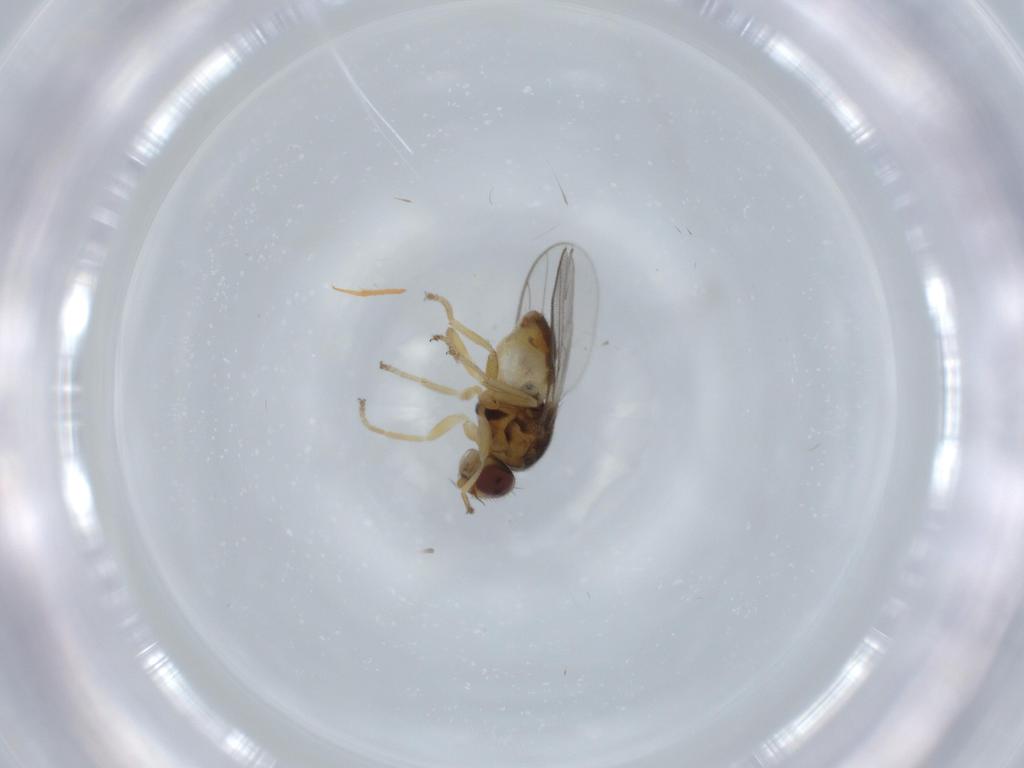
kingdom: Animalia
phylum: Arthropoda
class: Insecta
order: Diptera
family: Chloropidae
